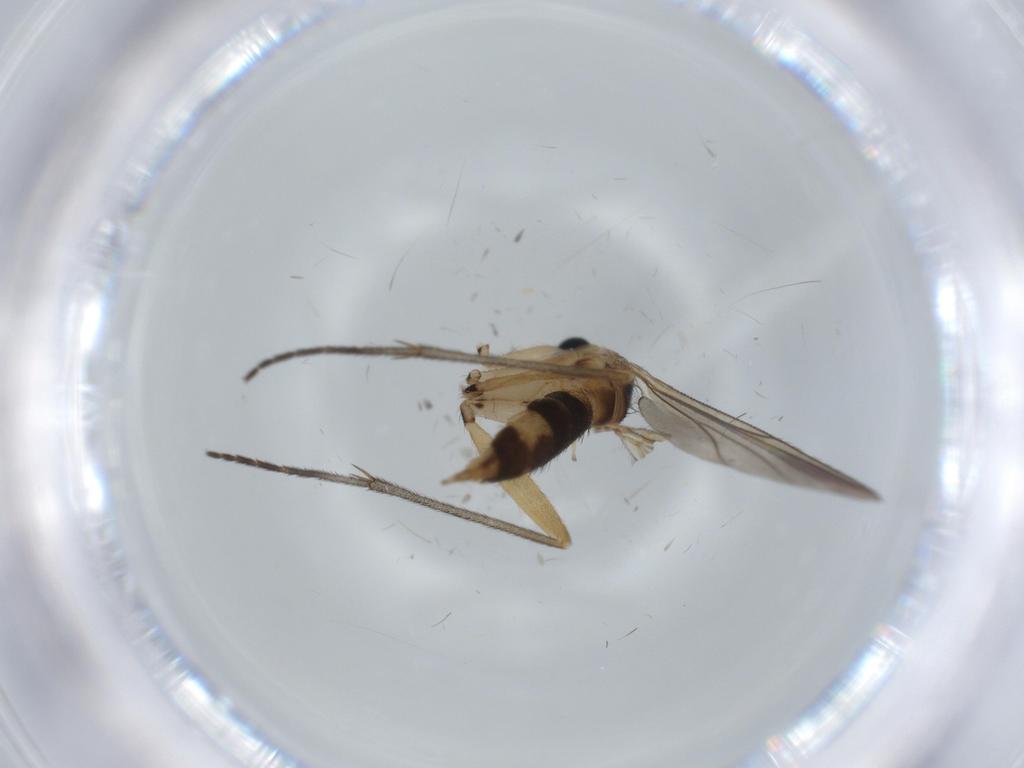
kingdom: Animalia
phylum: Arthropoda
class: Insecta
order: Diptera
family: Sciaridae
